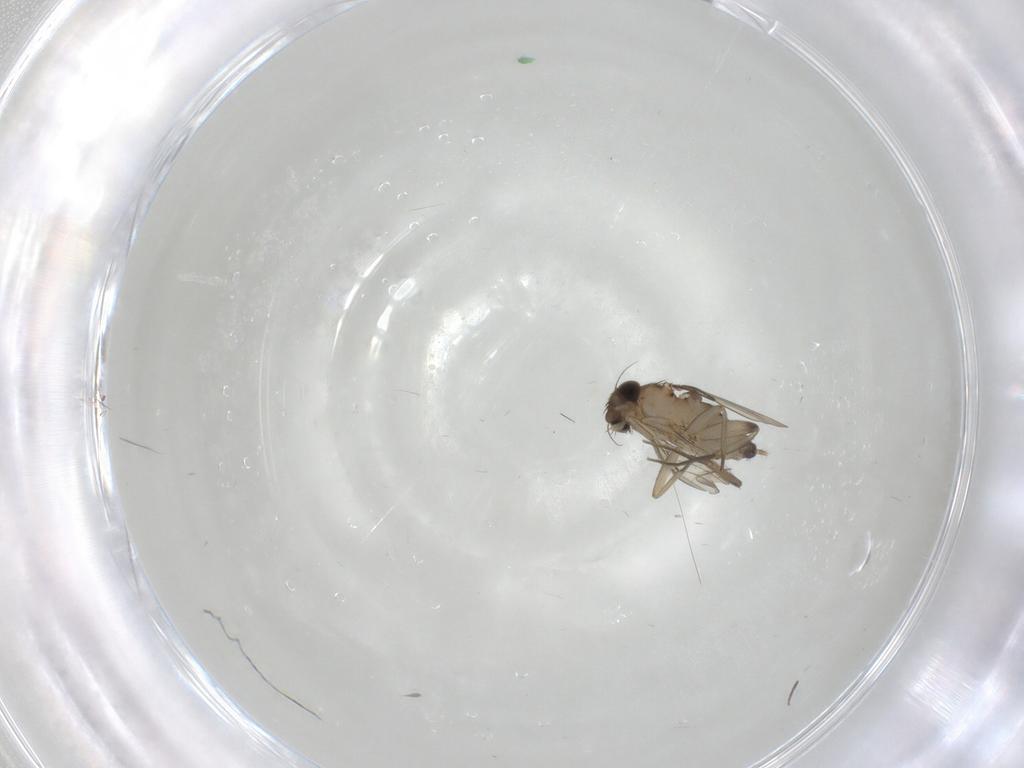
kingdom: Animalia
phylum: Arthropoda
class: Insecta
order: Diptera
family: Phoridae
